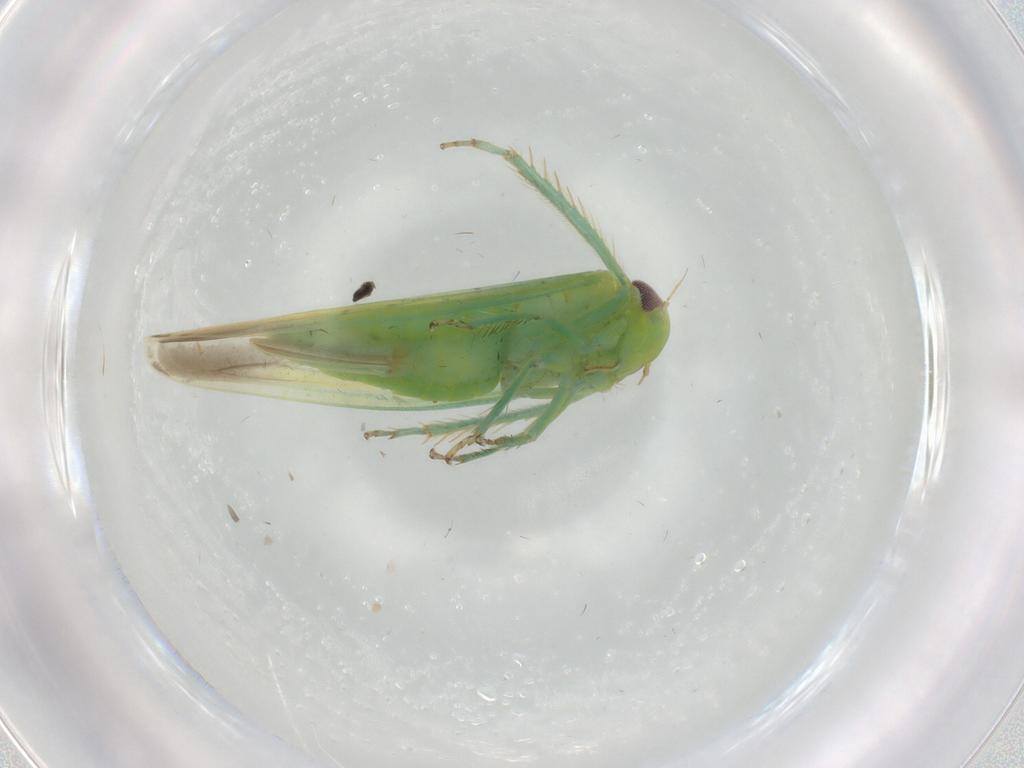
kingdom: Animalia
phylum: Arthropoda
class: Insecta
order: Hemiptera
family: Cicadellidae
